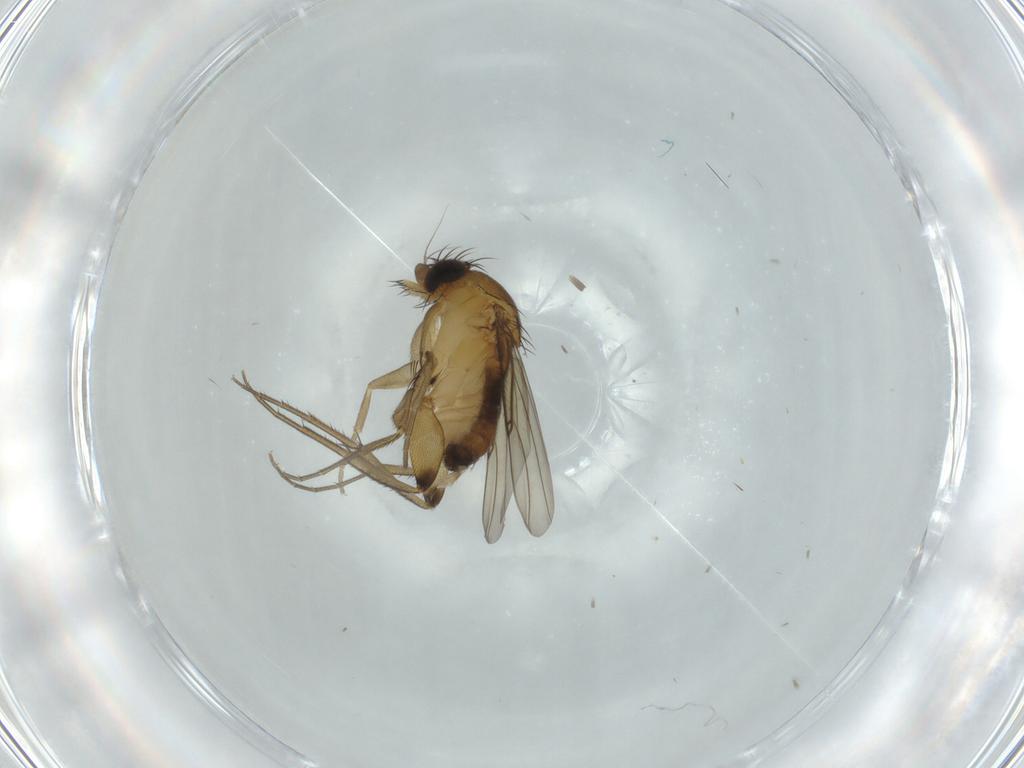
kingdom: Animalia
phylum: Arthropoda
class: Insecta
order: Diptera
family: Phoridae
